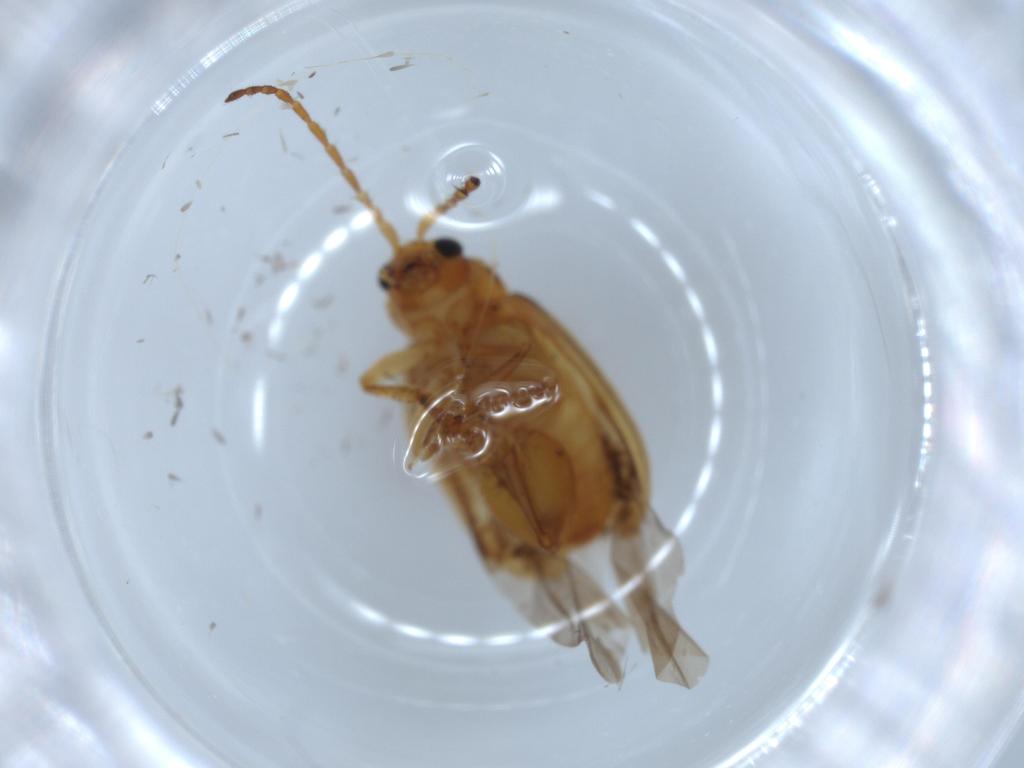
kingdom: Animalia
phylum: Arthropoda
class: Insecta
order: Coleoptera
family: Chrysomelidae
